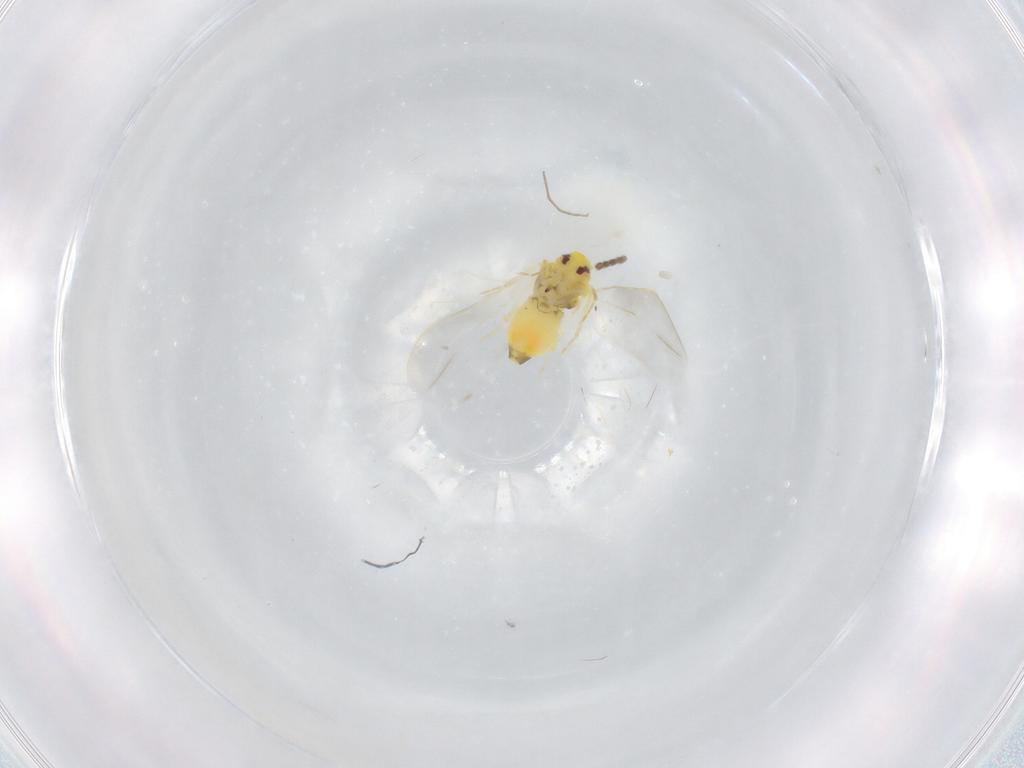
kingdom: Animalia
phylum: Arthropoda
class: Insecta
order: Hemiptera
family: Aleyrodidae
